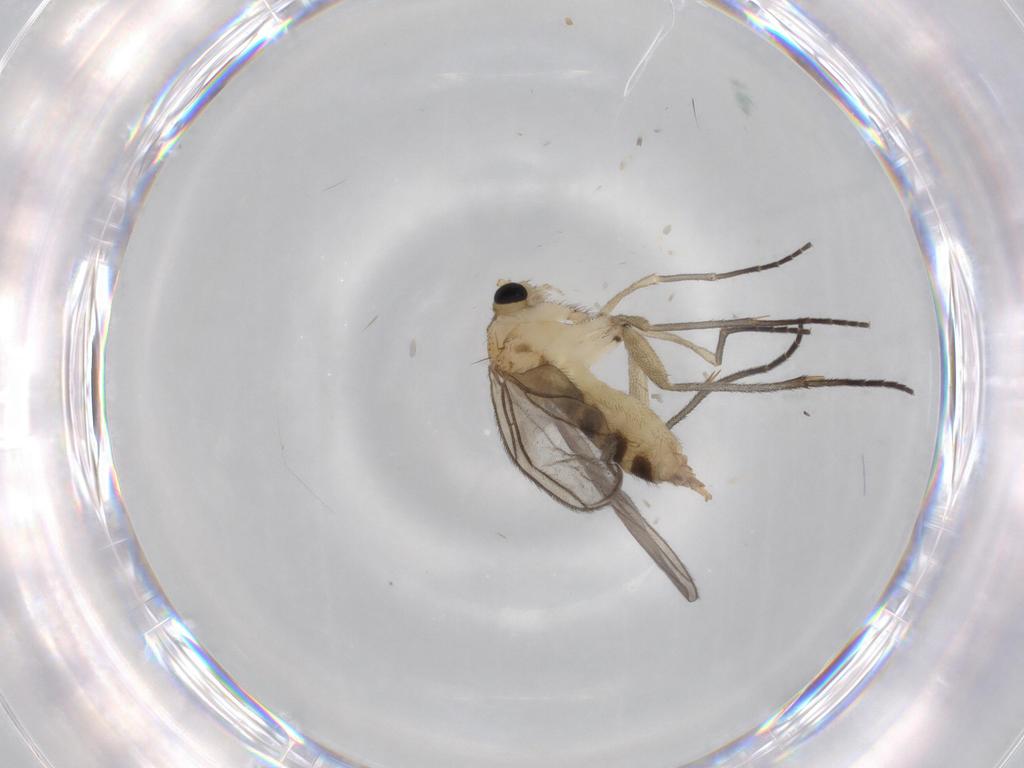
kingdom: Animalia
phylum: Arthropoda
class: Insecta
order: Diptera
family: Sciaridae
